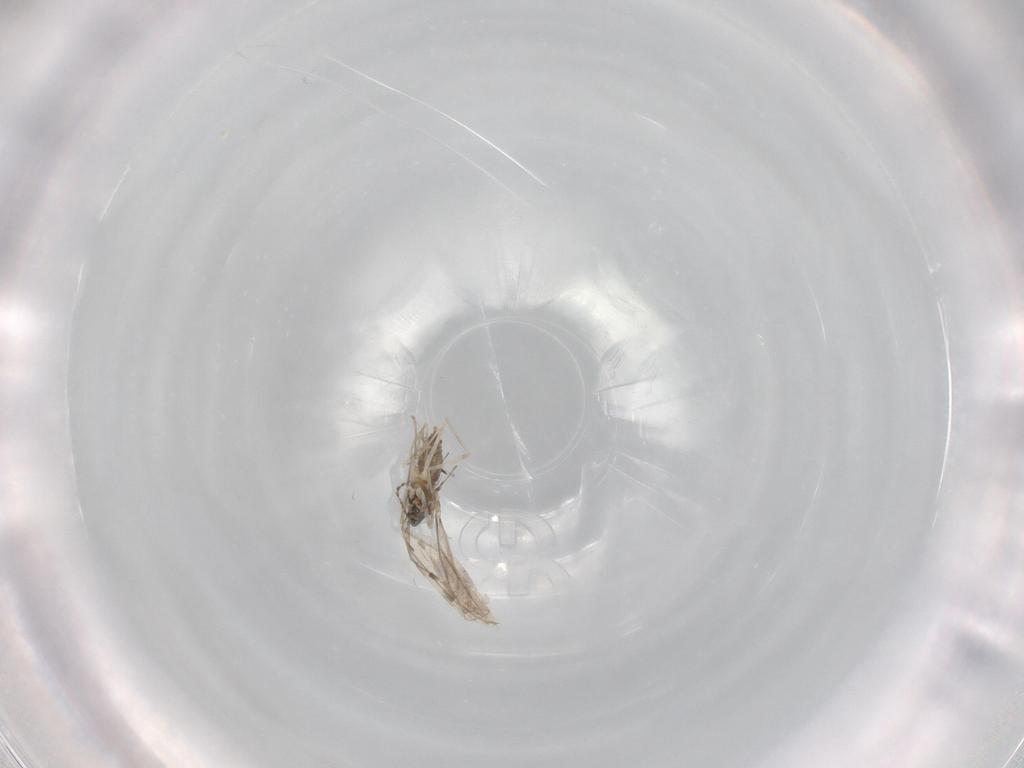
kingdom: Animalia
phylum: Arthropoda
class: Insecta
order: Diptera
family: Cecidomyiidae
